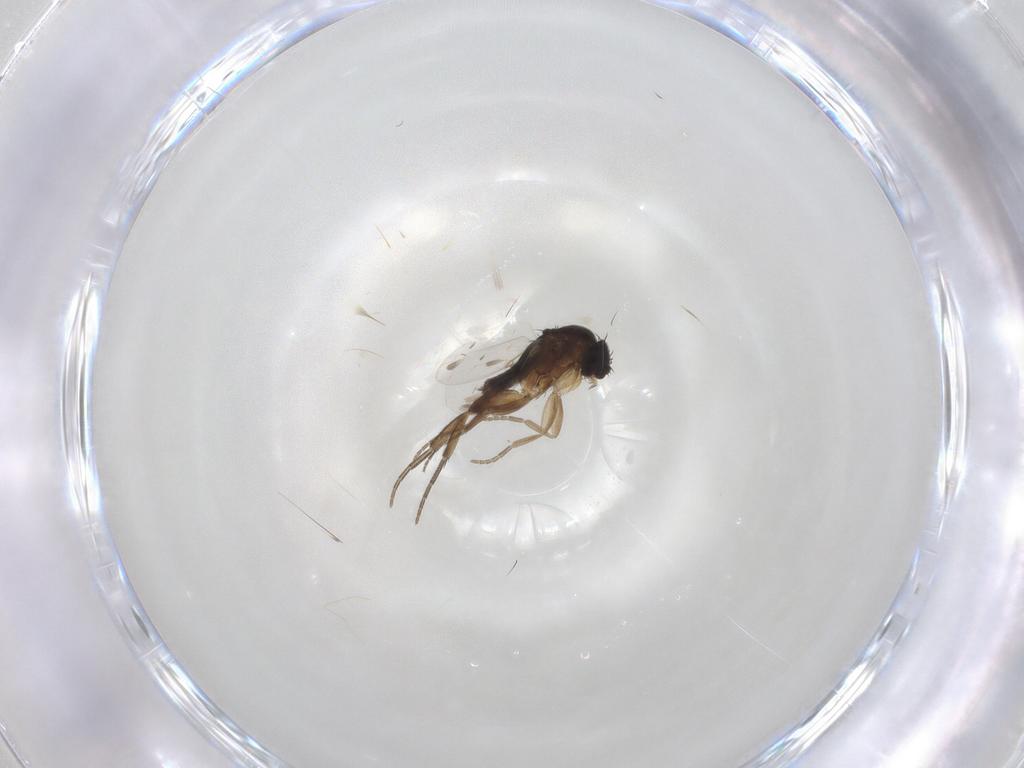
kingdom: Animalia
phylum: Arthropoda
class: Insecta
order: Diptera
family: Phoridae
